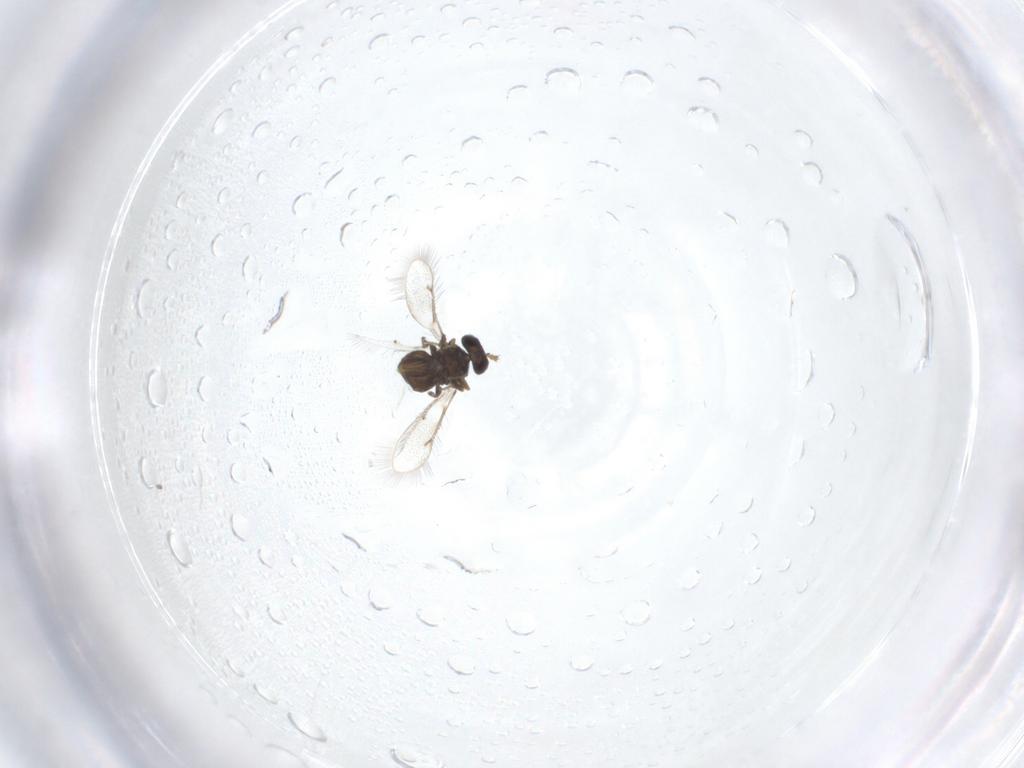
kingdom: Animalia
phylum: Arthropoda
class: Insecta
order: Hymenoptera
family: Eulophidae
